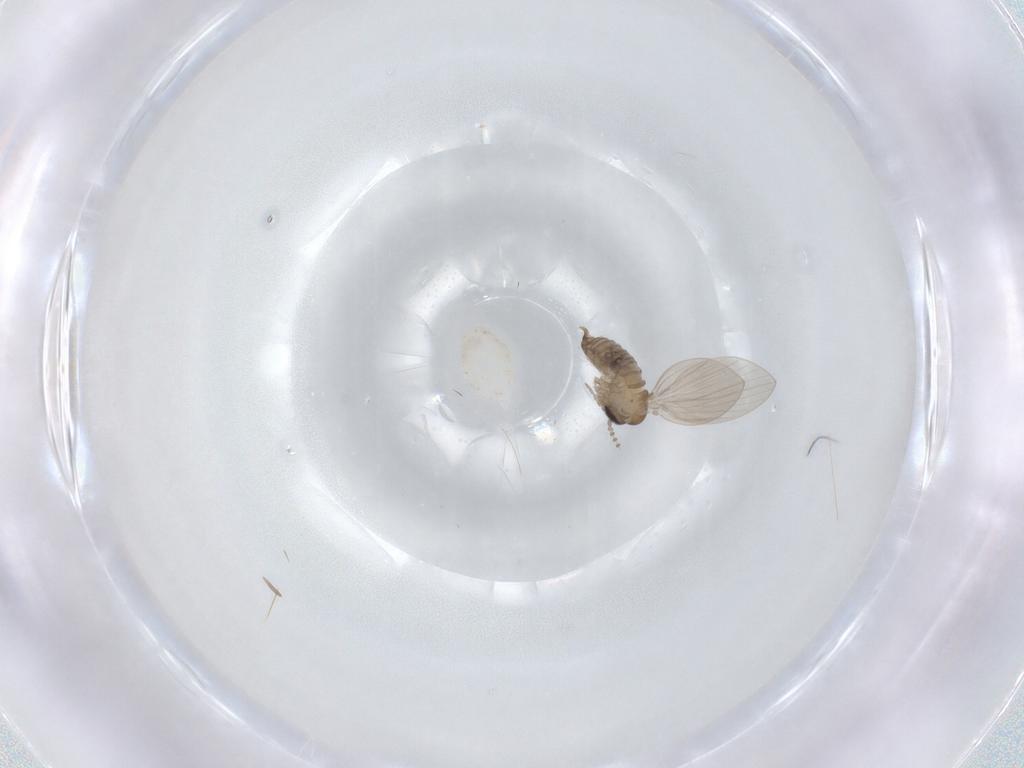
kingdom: Animalia
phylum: Arthropoda
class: Insecta
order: Diptera
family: Psychodidae
